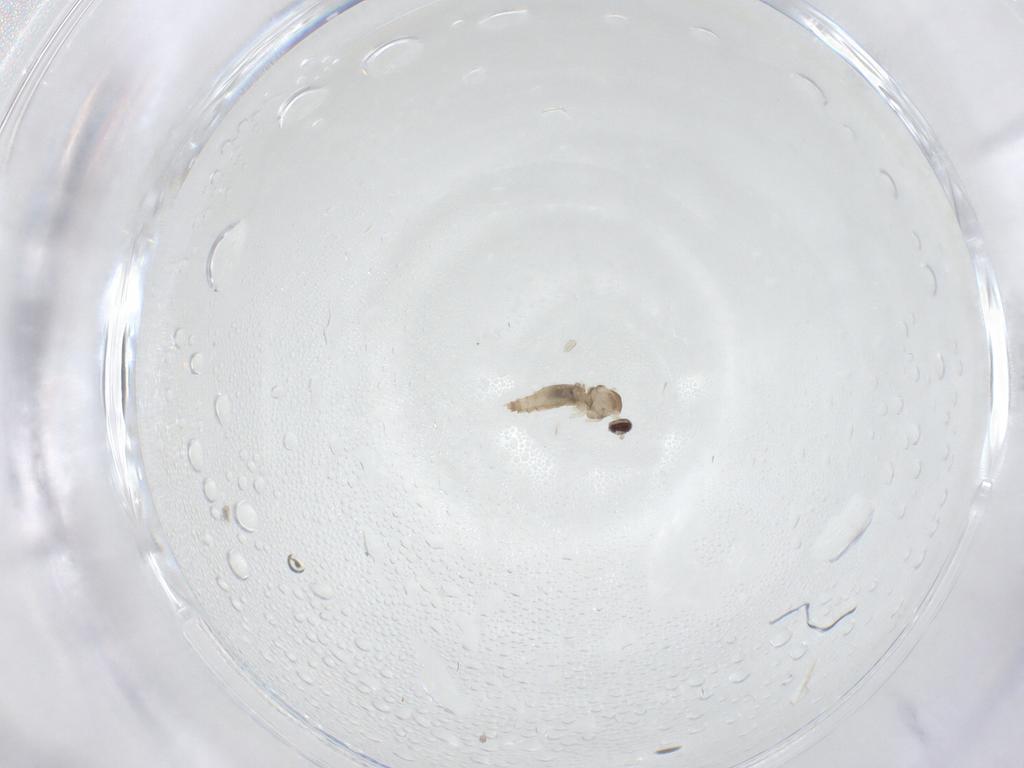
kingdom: Animalia
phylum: Arthropoda
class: Insecta
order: Diptera
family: Cecidomyiidae
